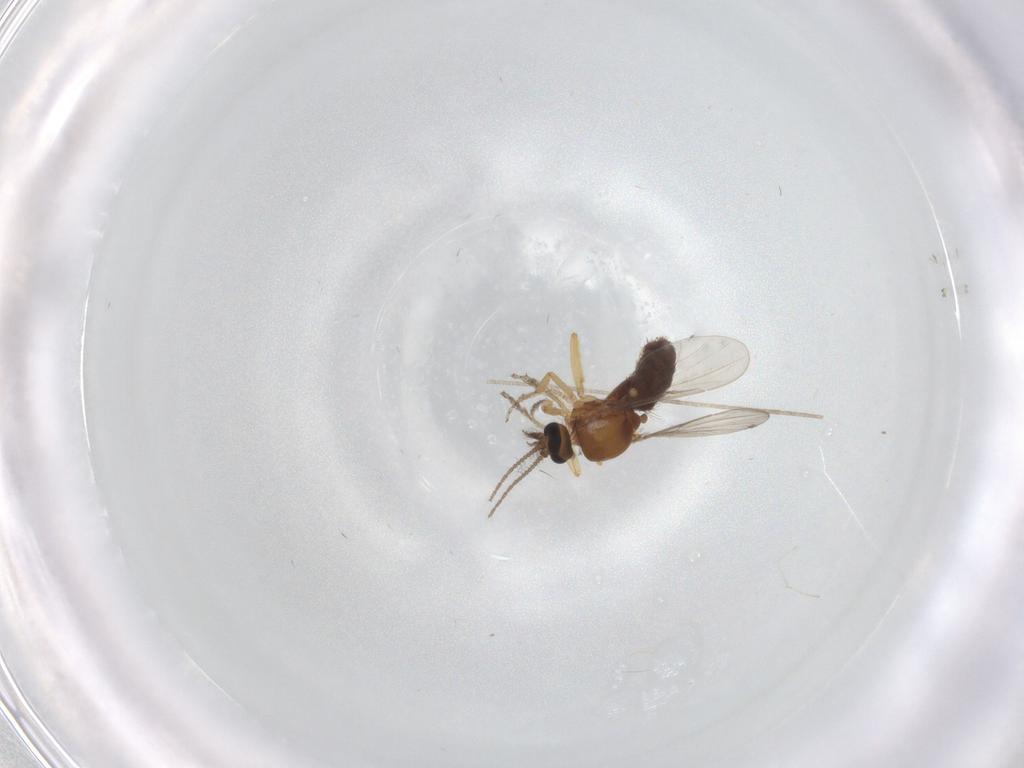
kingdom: Animalia
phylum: Arthropoda
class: Insecta
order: Diptera
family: Ceratopogonidae
